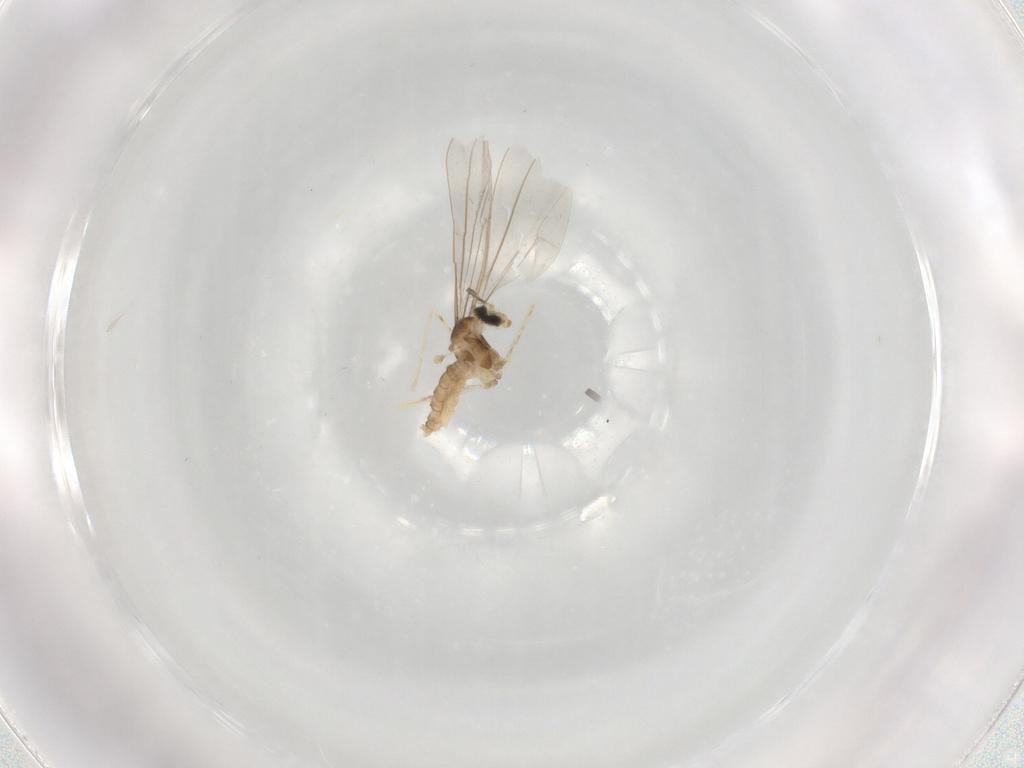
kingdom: Animalia
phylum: Arthropoda
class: Insecta
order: Diptera
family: Cecidomyiidae
